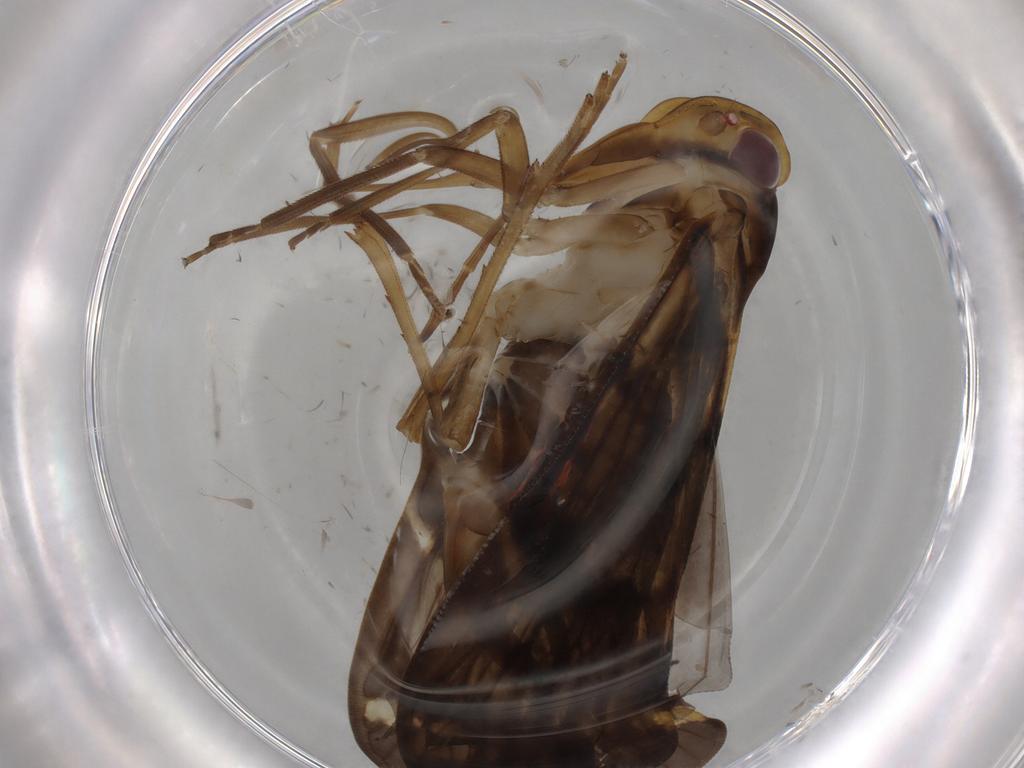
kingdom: Animalia
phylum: Arthropoda
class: Insecta
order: Hemiptera
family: Cixiidae
